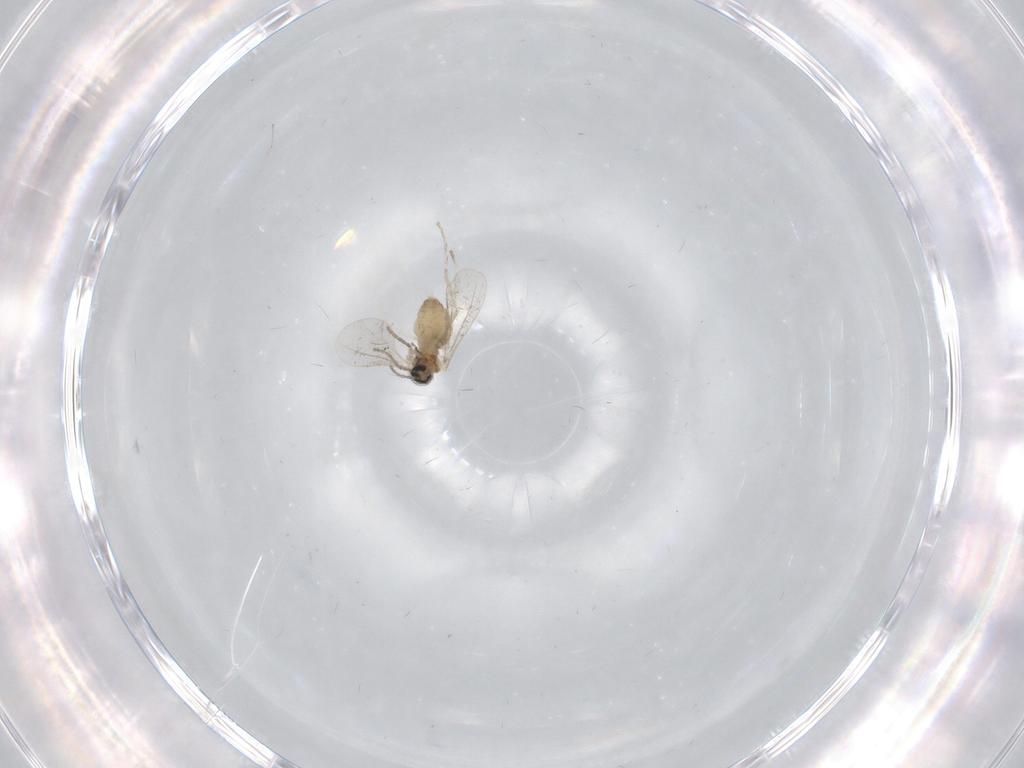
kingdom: Animalia
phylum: Arthropoda
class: Insecta
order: Diptera
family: Cecidomyiidae
